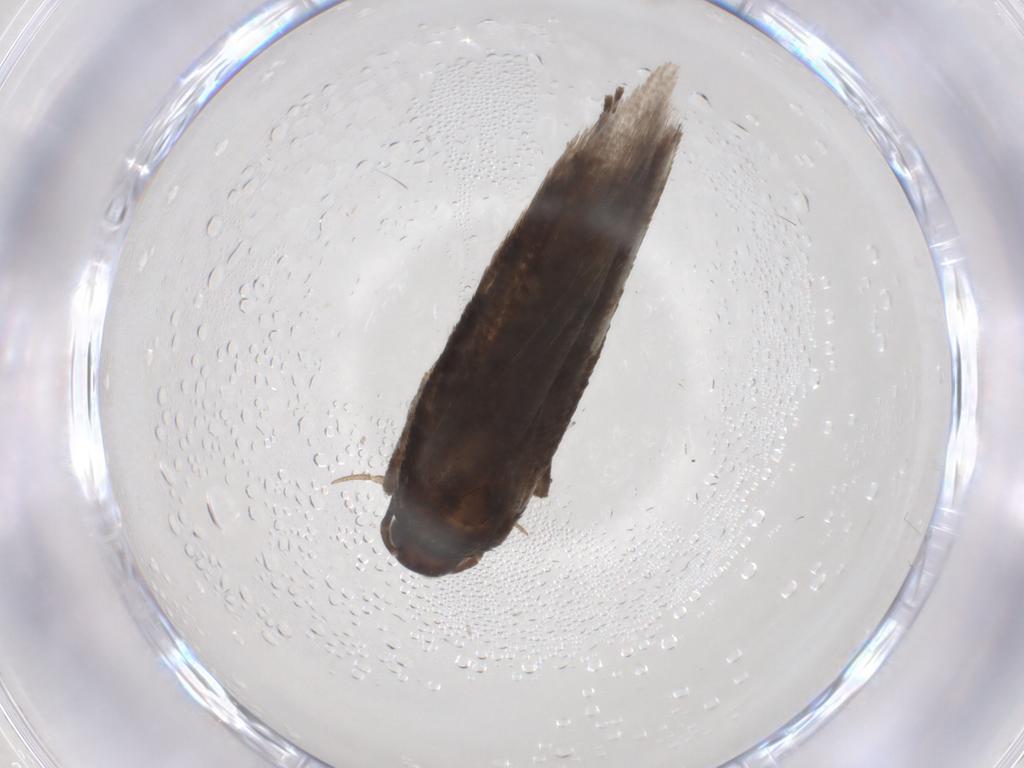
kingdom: Animalia
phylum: Arthropoda
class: Insecta
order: Lepidoptera
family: Gelechiidae
